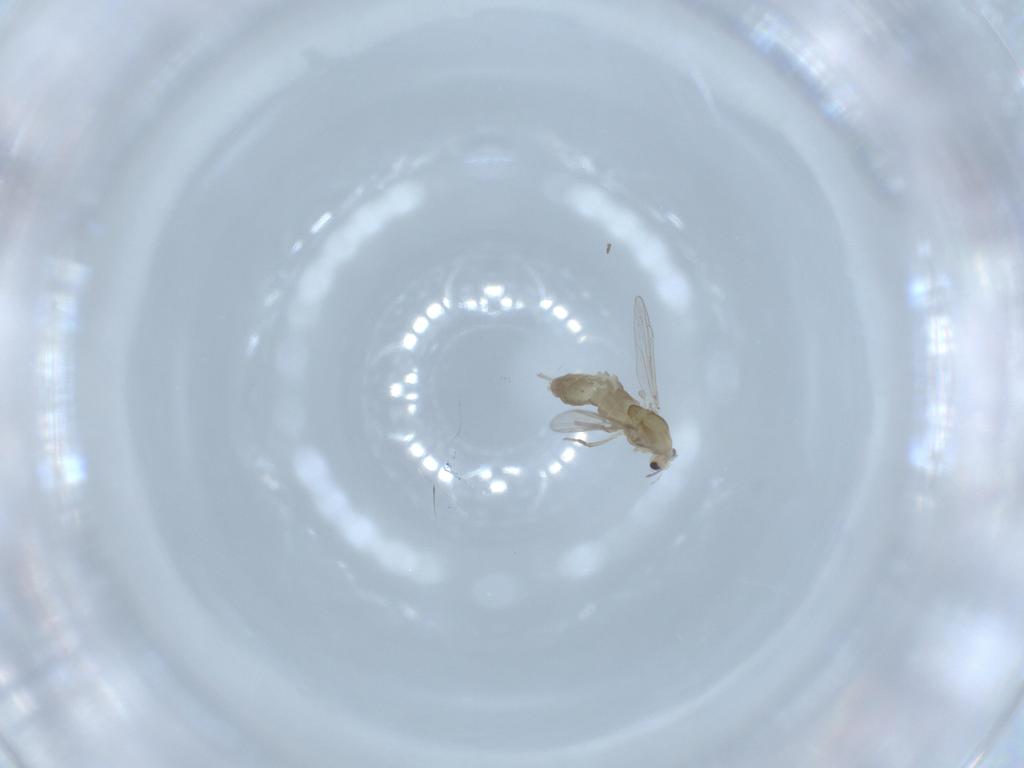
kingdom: Animalia
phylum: Arthropoda
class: Insecta
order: Diptera
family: Chironomidae
